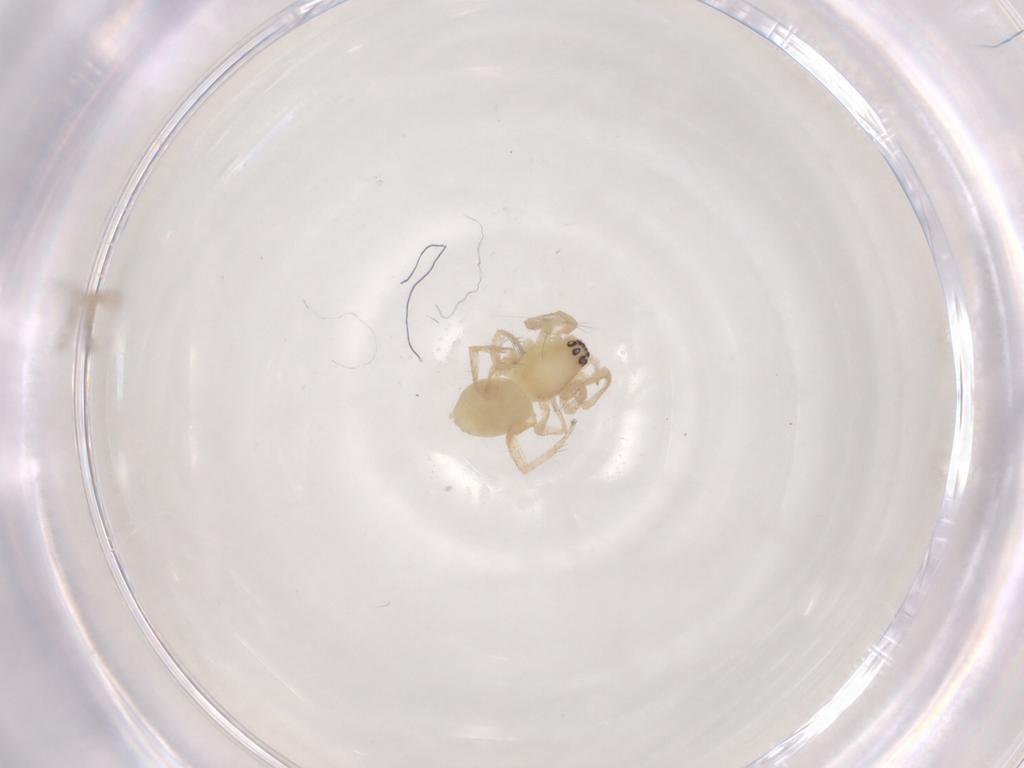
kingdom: Animalia
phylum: Arthropoda
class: Arachnida
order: Araneae
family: Anyphaenidae
